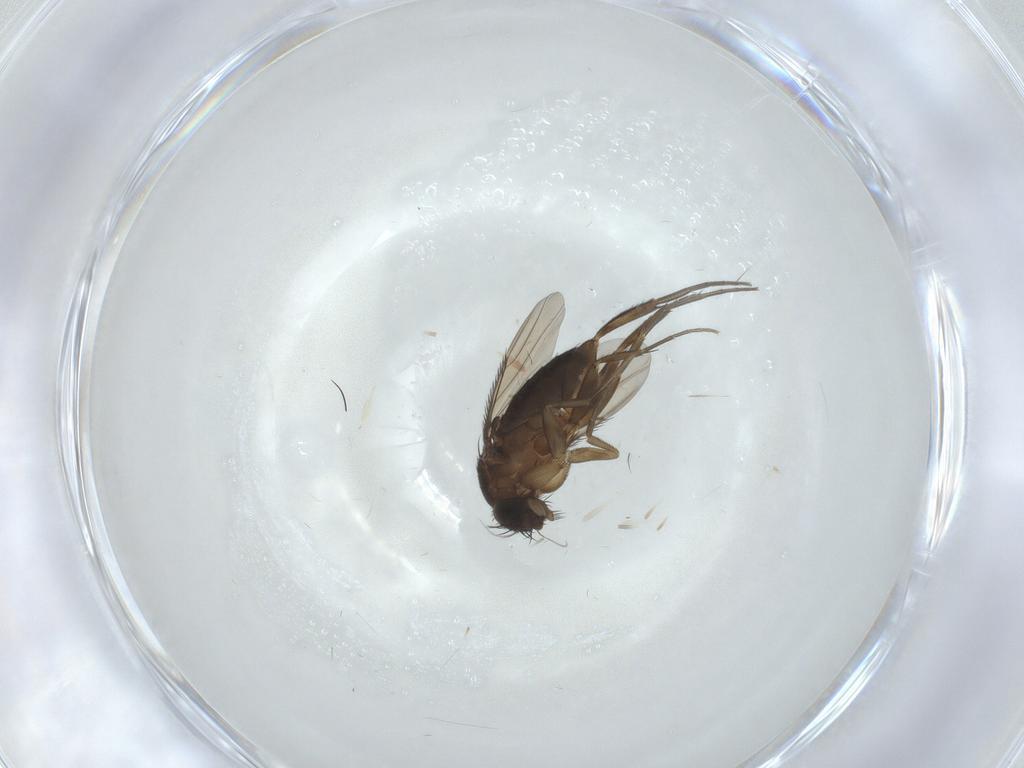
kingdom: Animalia
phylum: Arthropoda
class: Insecta
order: Diptera
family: Phoridae
